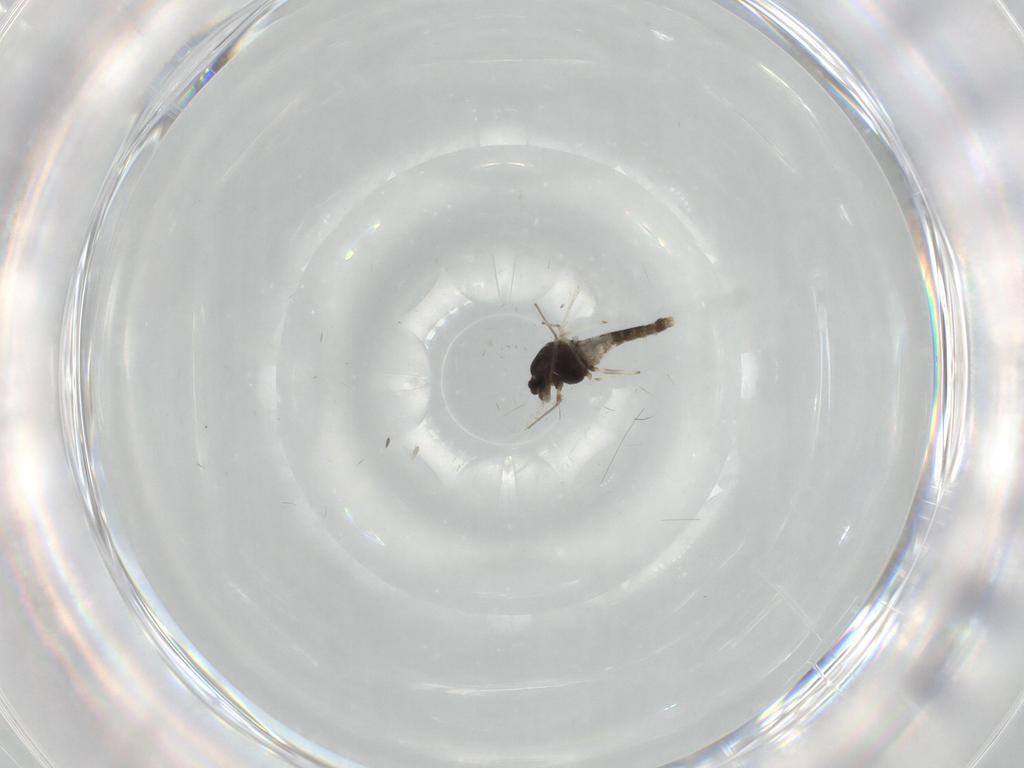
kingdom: Animalia
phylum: Arthropoda
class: Insecta
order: Diptera
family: Chironomidae
